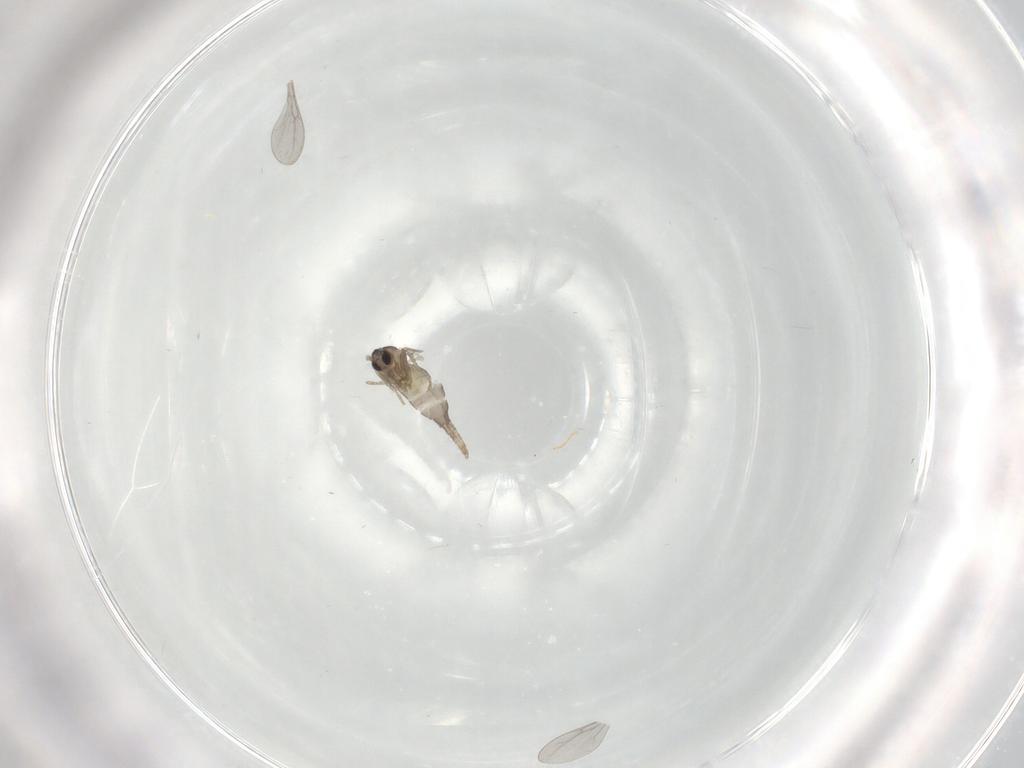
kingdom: Animalia
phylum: Arthropoda
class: Insecta
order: Diptera
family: Cecidomyiidae
